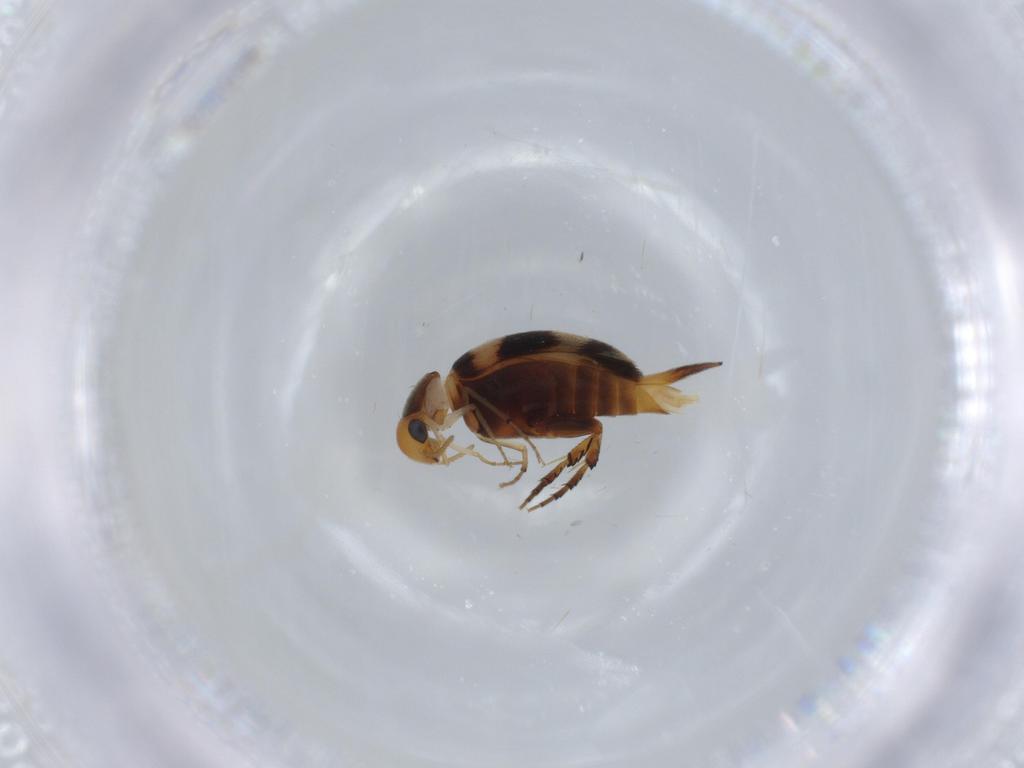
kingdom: Animalia
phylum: Arthropoda
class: Insecta
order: Coleoptera
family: Mordellidae
